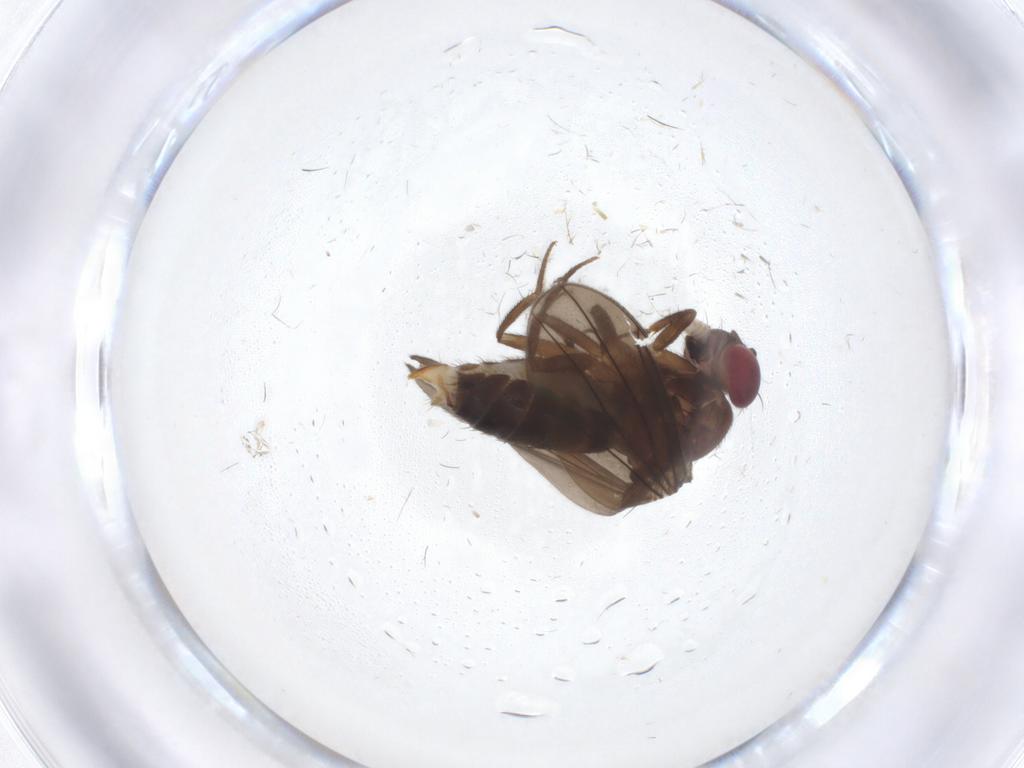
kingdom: Animalia
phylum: Arthropoda
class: Insecta
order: Diptera
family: Drosophilidae
